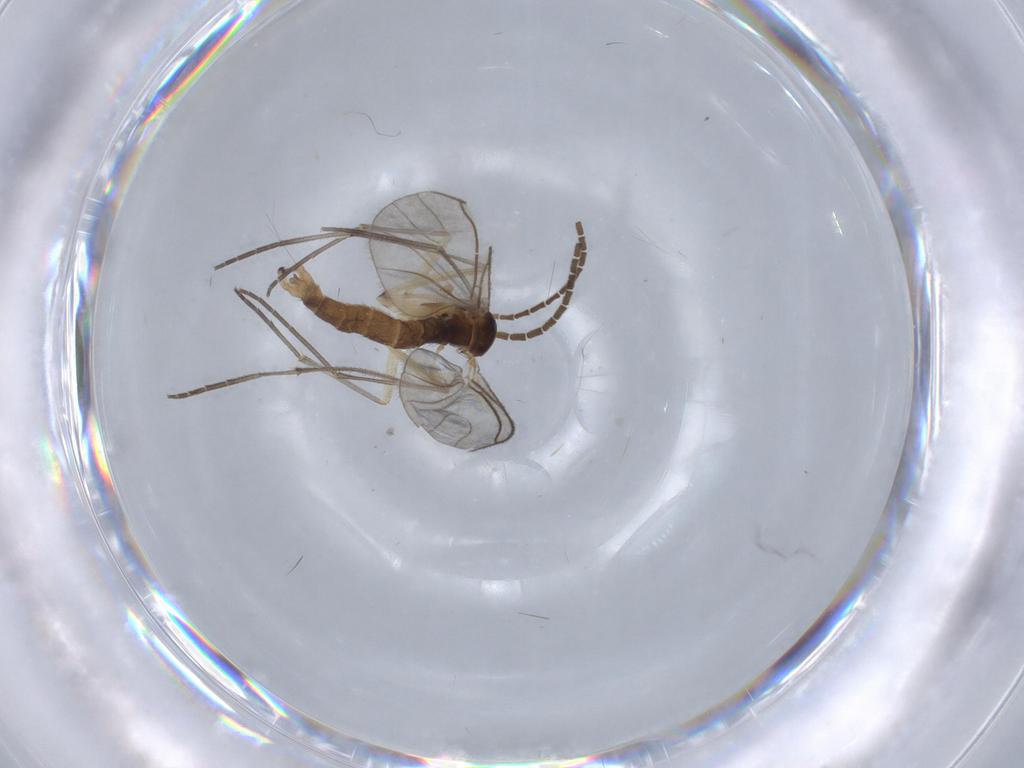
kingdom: Animalia
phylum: Arthropoda
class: Insecta
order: Diptera
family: Sciaridae
